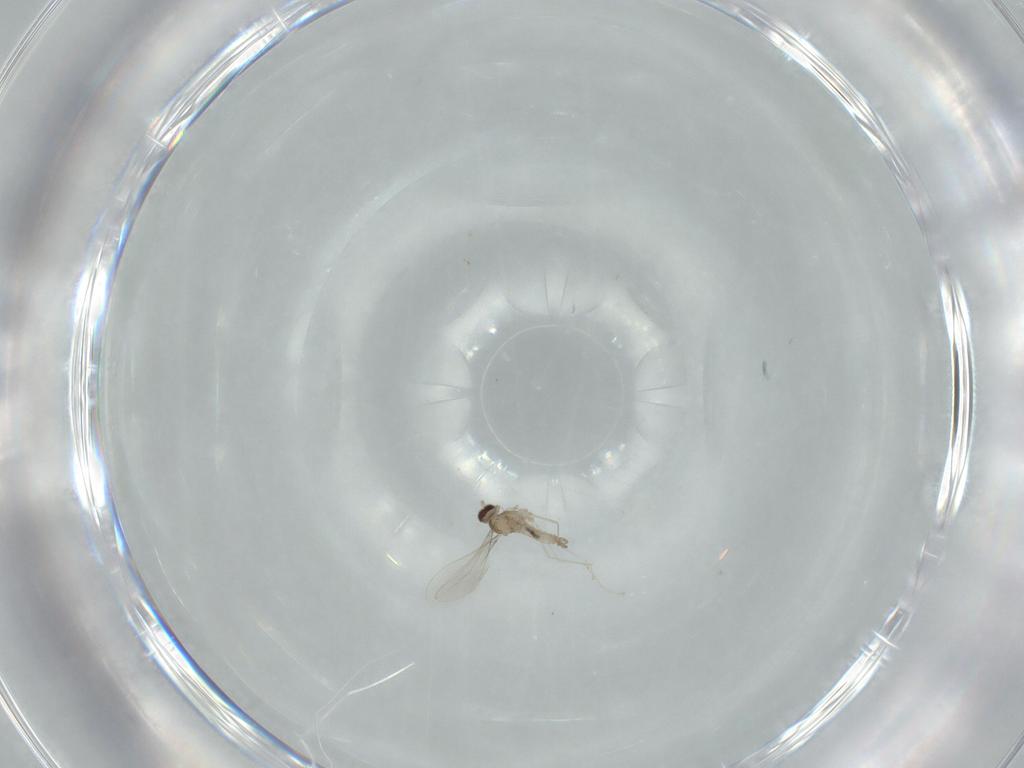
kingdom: Animalia
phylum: Arthropoda
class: Insecta
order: Diptera
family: Cecidomyiidae
